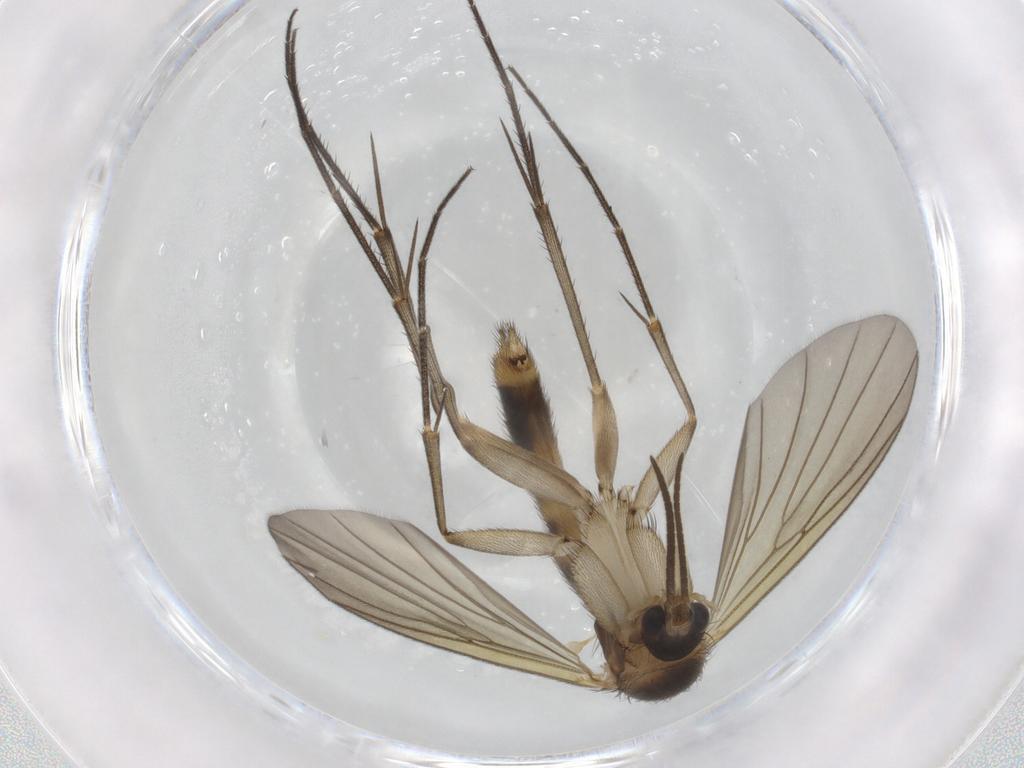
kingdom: Animalia
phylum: Arthropoda
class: Insecta
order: Diptera
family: Mycetophilidae
